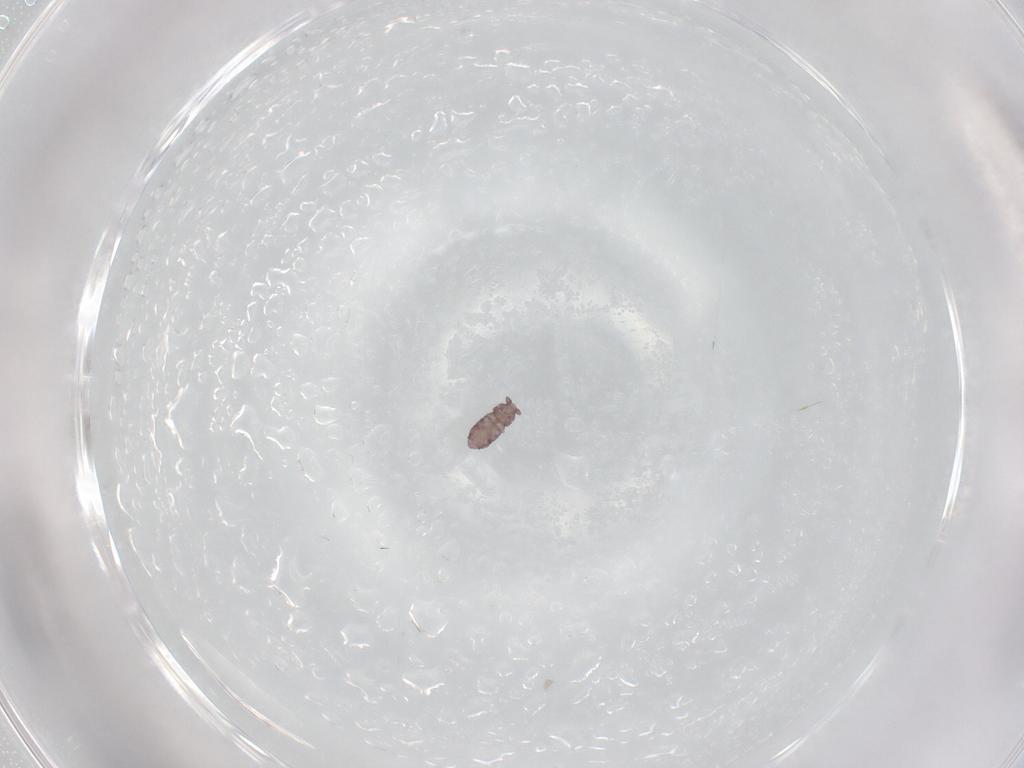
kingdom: Animalia
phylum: Arthropoda
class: Collembola
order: Poduromorpha
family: Hypogastruridae
